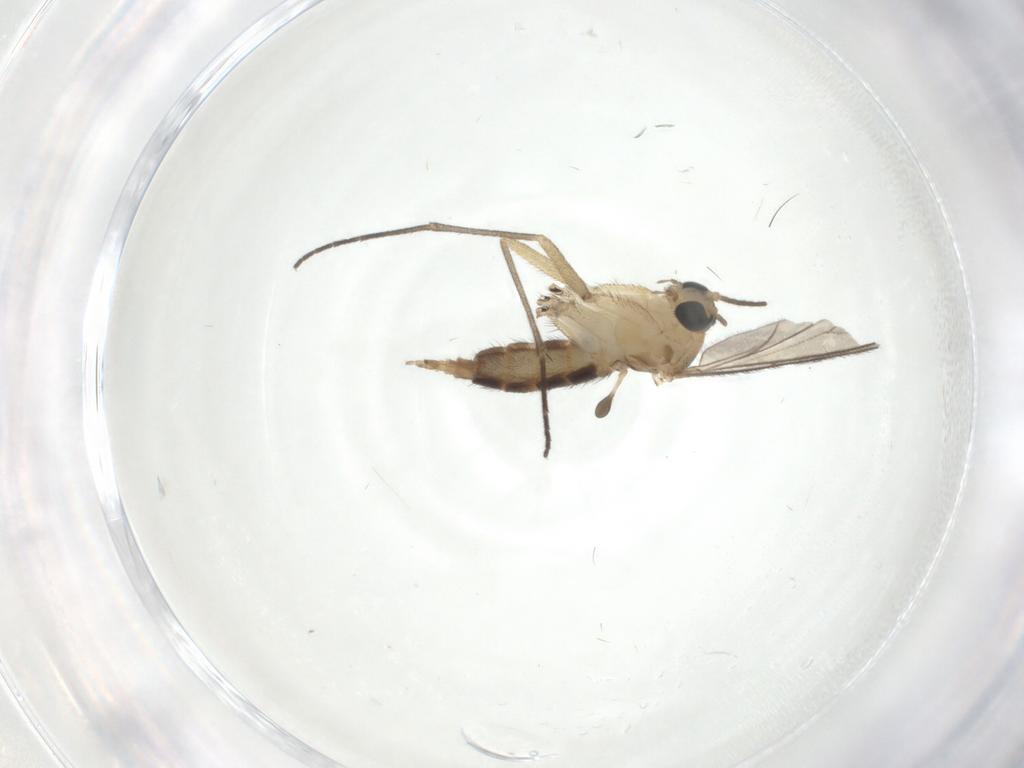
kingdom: Animalia
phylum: Arthropoda
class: Insecta
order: Diptera
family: Sciaridae
